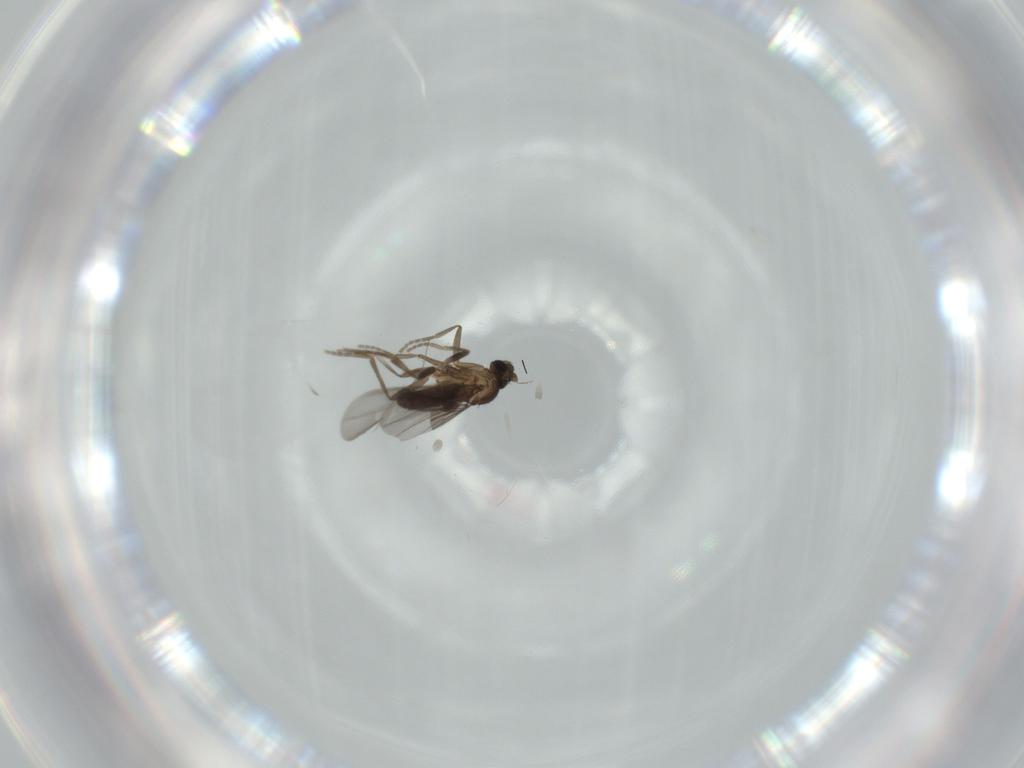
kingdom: Animalia
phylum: Arthropoda
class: Insecta
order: Diptera
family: Phoridae
